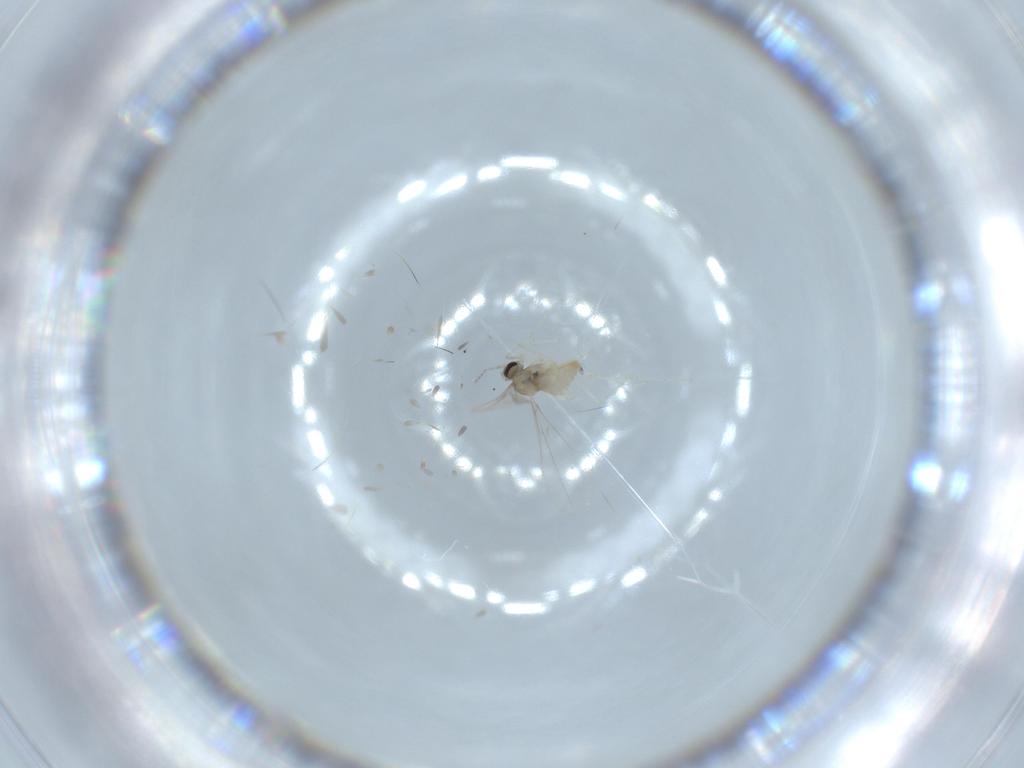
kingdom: Animalia
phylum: Arthropoda
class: Insecta
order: Diptera
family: Cecidomyiidae
